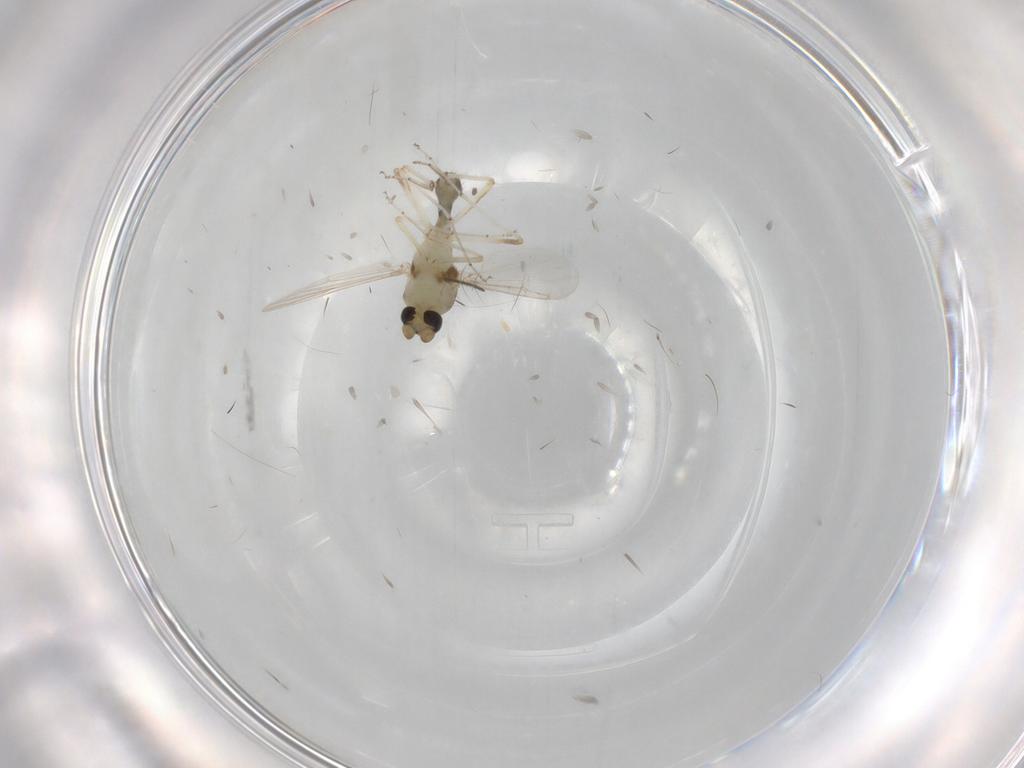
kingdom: Animalia
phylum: Arthropoda
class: Insecta
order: Diptera
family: Ceratopogonidae
